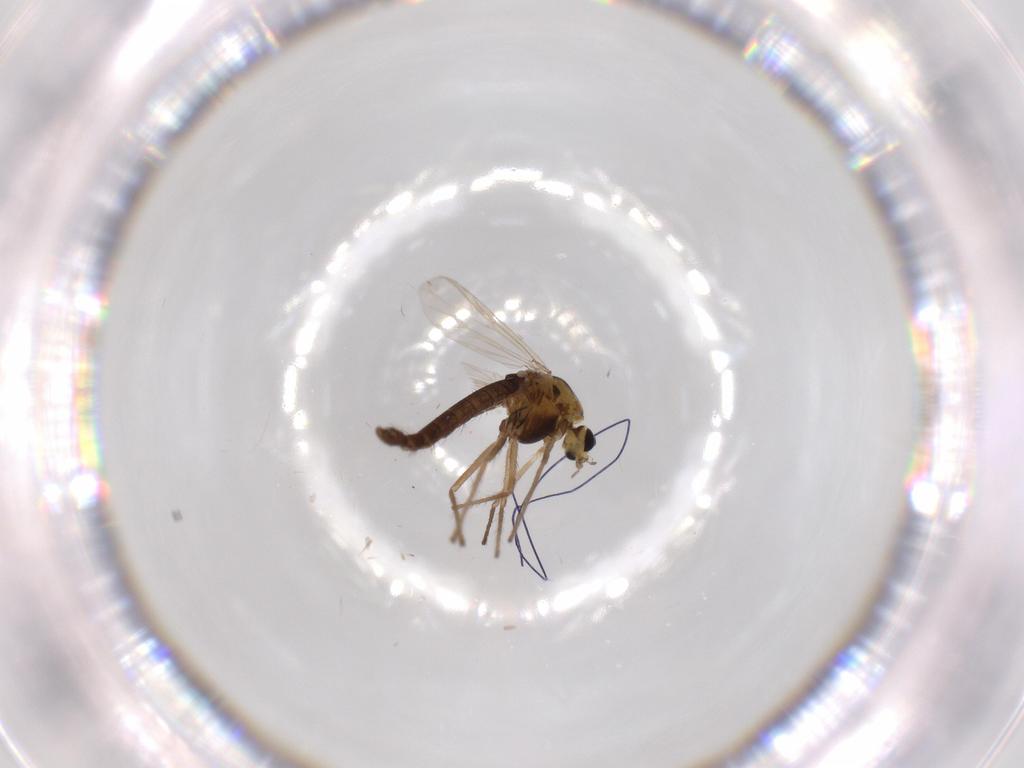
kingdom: Animalia
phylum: Arthropoda
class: Insecta
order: Diptera
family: Chironomidae
